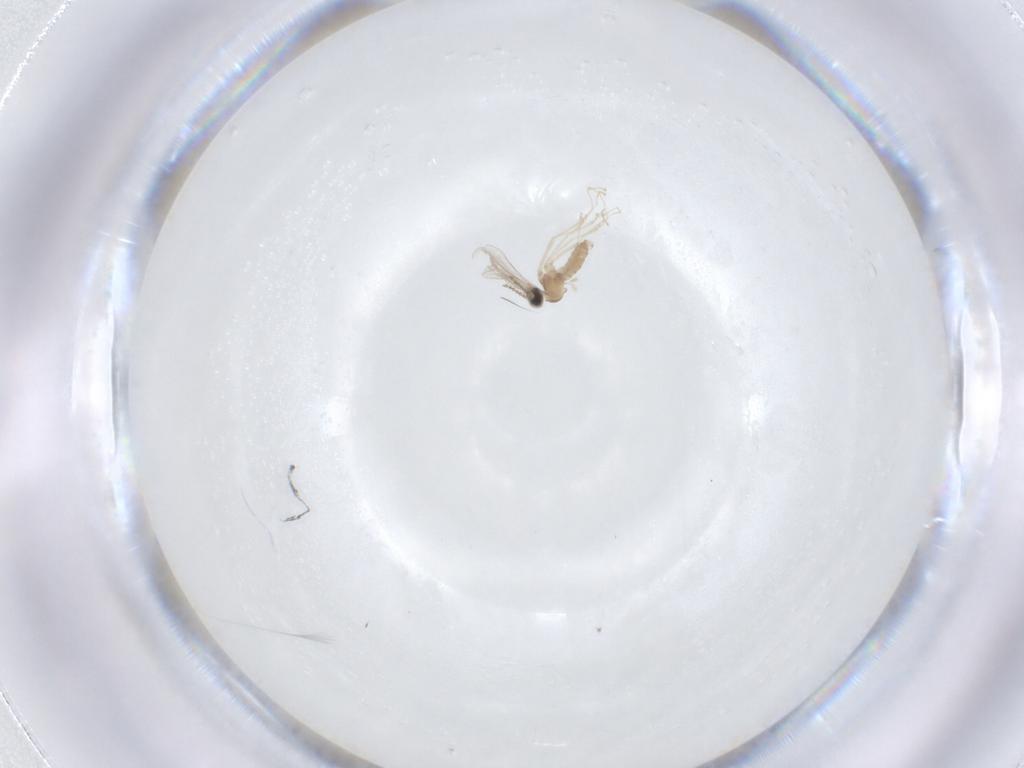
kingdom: Animalia
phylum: Arthropoda
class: Insecta
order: Diptera
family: Cecidomyiidae
